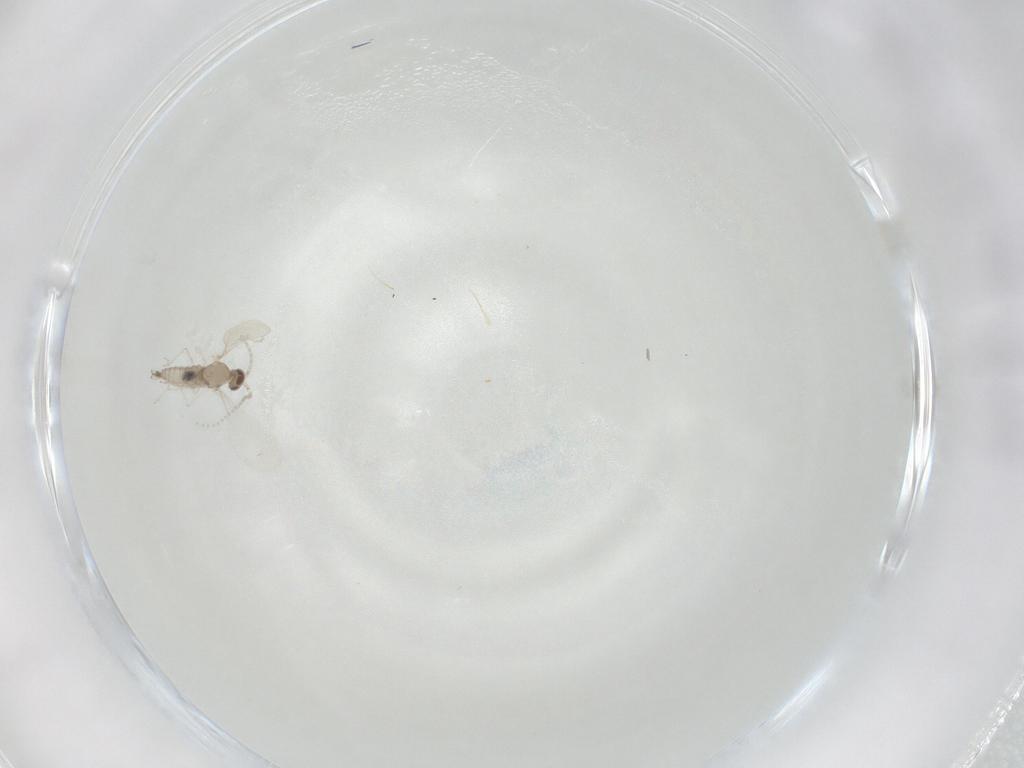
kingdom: Animalia
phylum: Arthropoda
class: Insecta
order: Diptera
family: Cecidomyiidae
